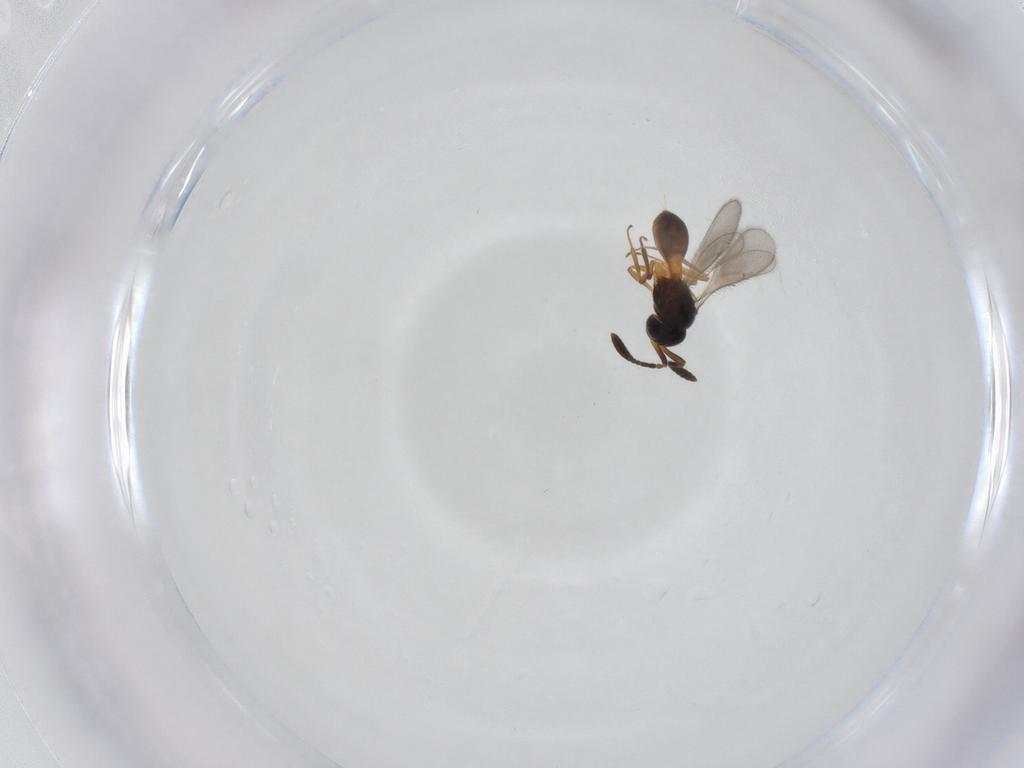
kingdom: Animalia
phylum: Arthropoda
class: Insecta
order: Hymenoptera
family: Scelionidae
